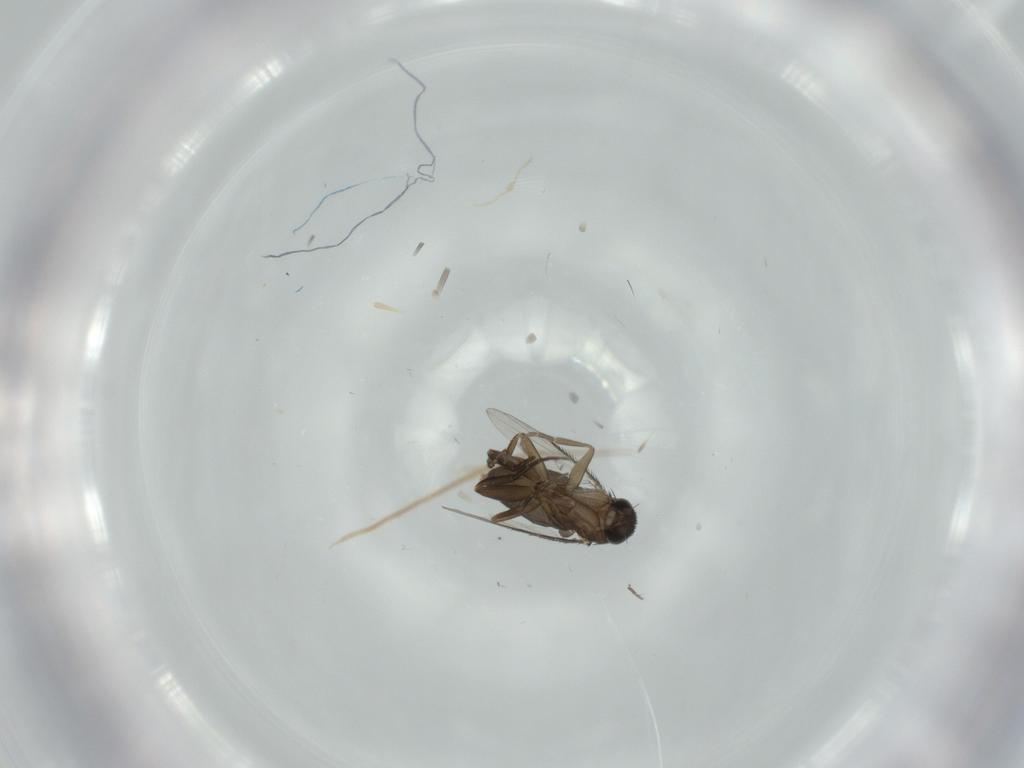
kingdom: Animalia
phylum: Arthropoda
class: Insecta
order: Diptera
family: Phoridae
